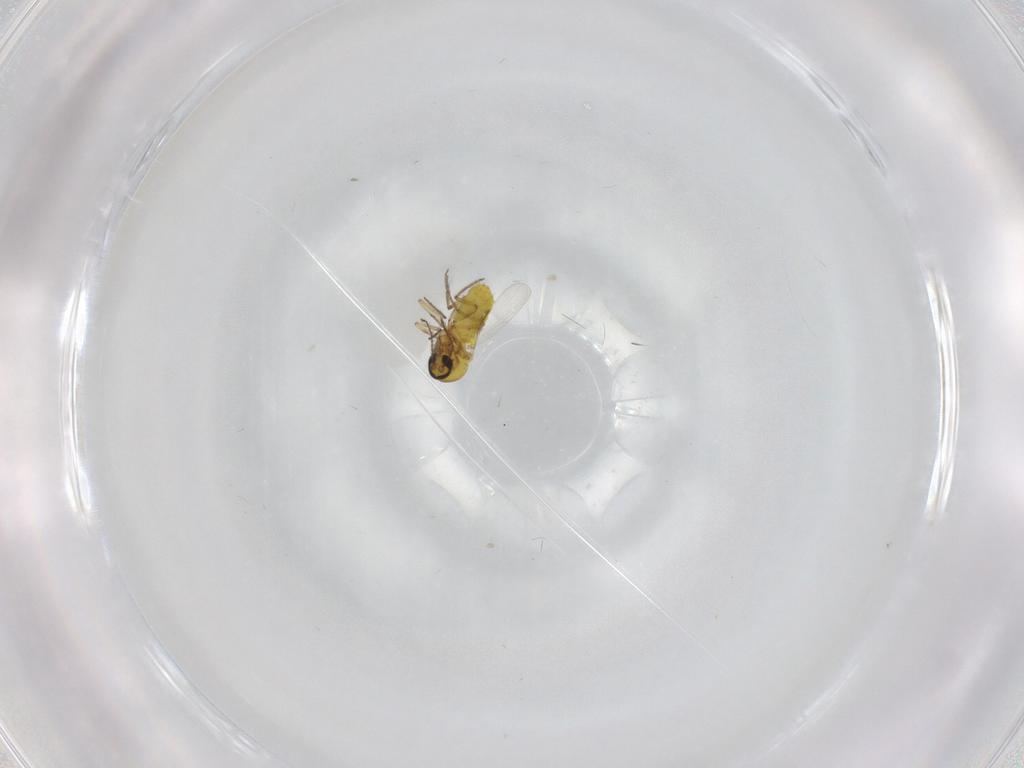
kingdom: Animalia
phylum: Arthropoda
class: Insecta
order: Diptera
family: Ceratopogonidae
